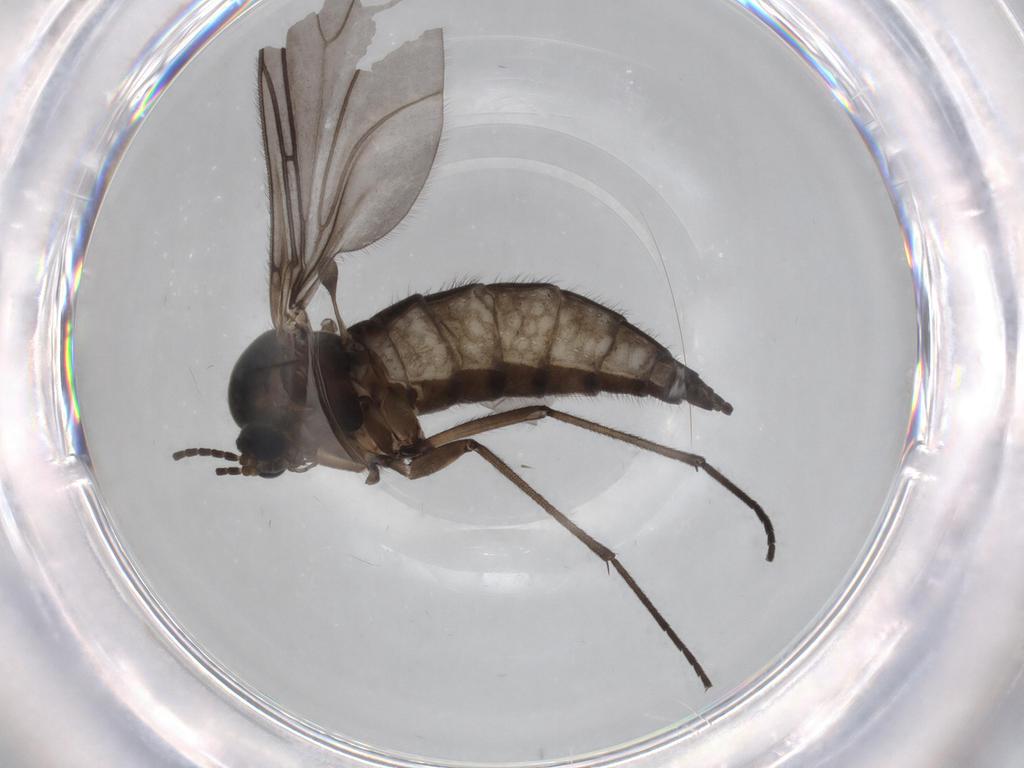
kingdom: Animalia
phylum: Arthropoda
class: Insecta
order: Diptera
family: Sciaridae
